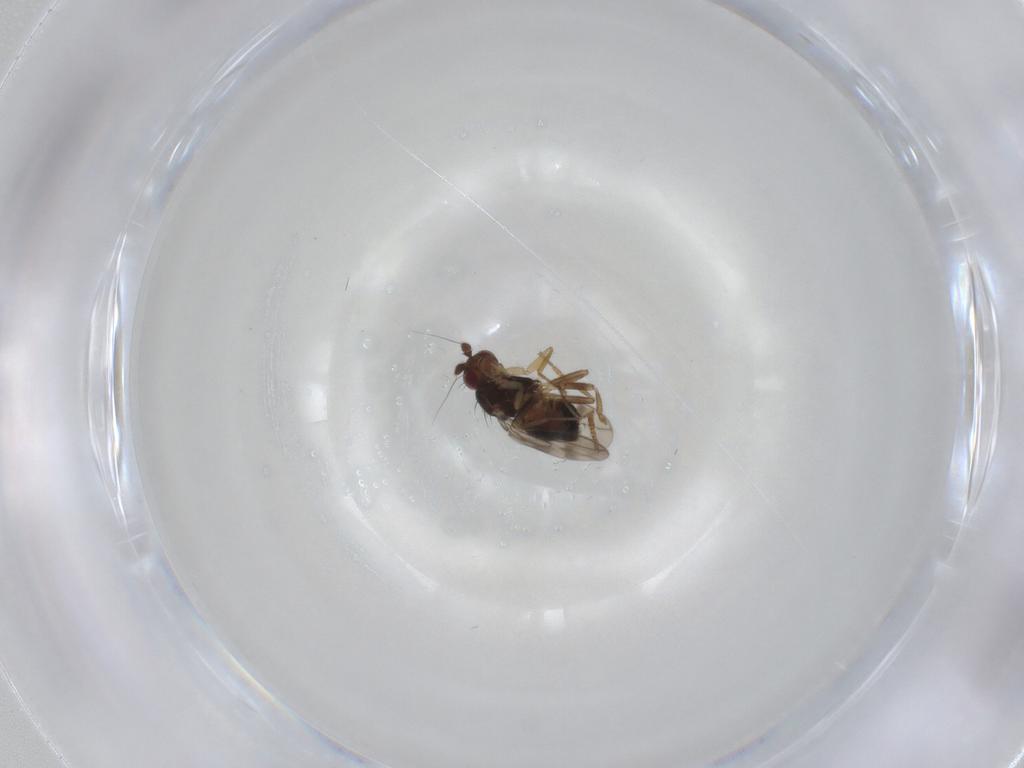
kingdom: Animalia
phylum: Arthropoda
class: Insecta
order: Diptera
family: Sphaeroceridae
